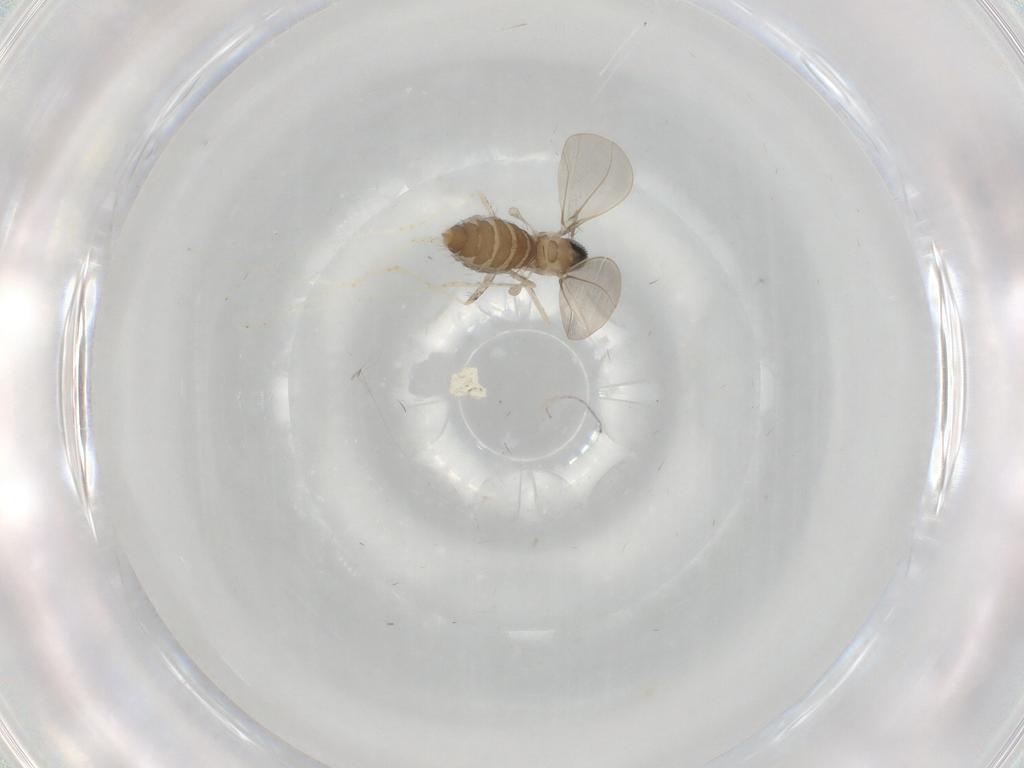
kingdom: Animalia
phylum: Arthropoda
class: Insecta
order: Diptera
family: Cecidomyiidae
